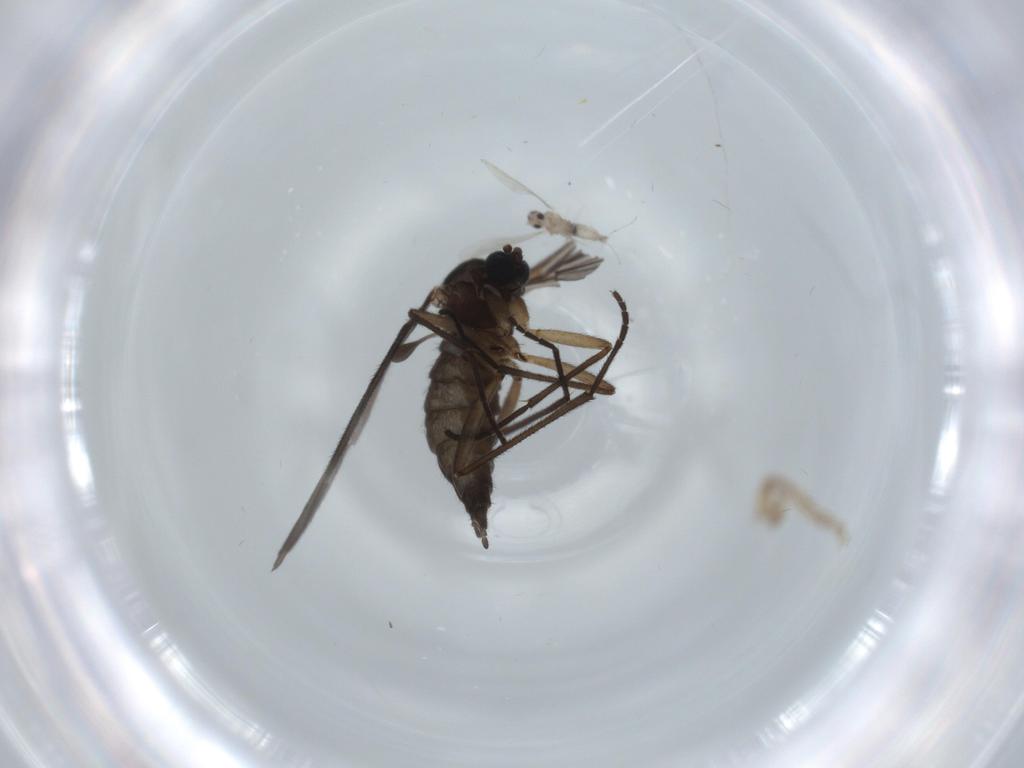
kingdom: Animalia
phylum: Arthropoda
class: Insecta
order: Diptera
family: Sciaridae
